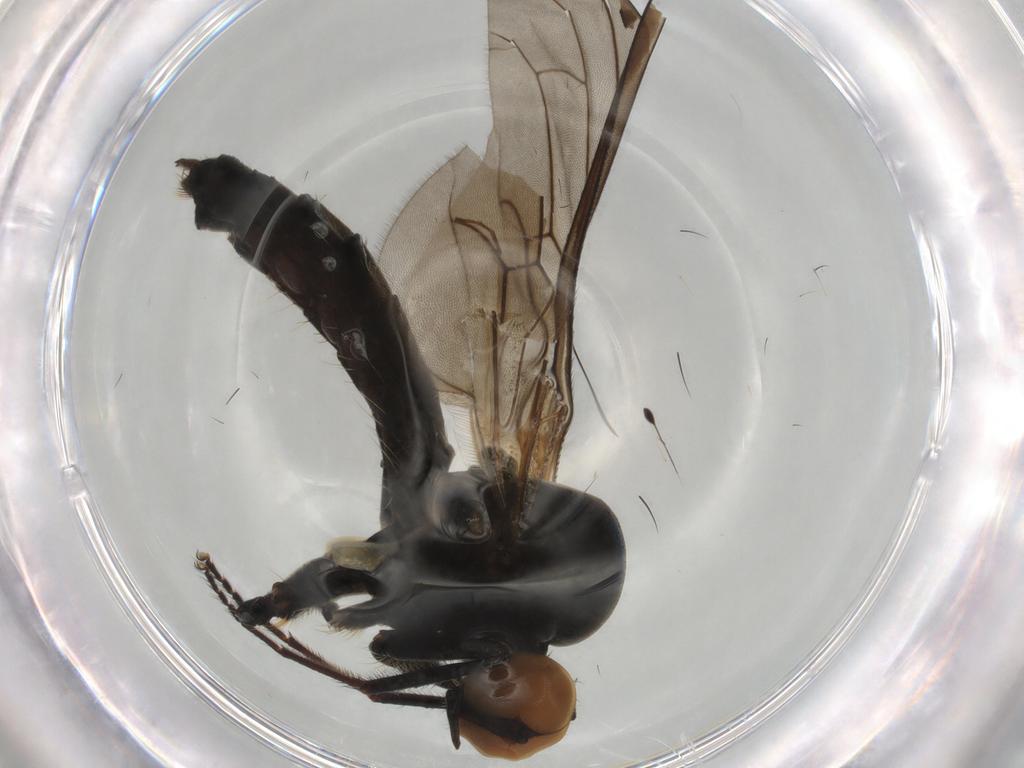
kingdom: Animalia
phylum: Arthropoda
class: Insecta
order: Diptera
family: Hybotidae
